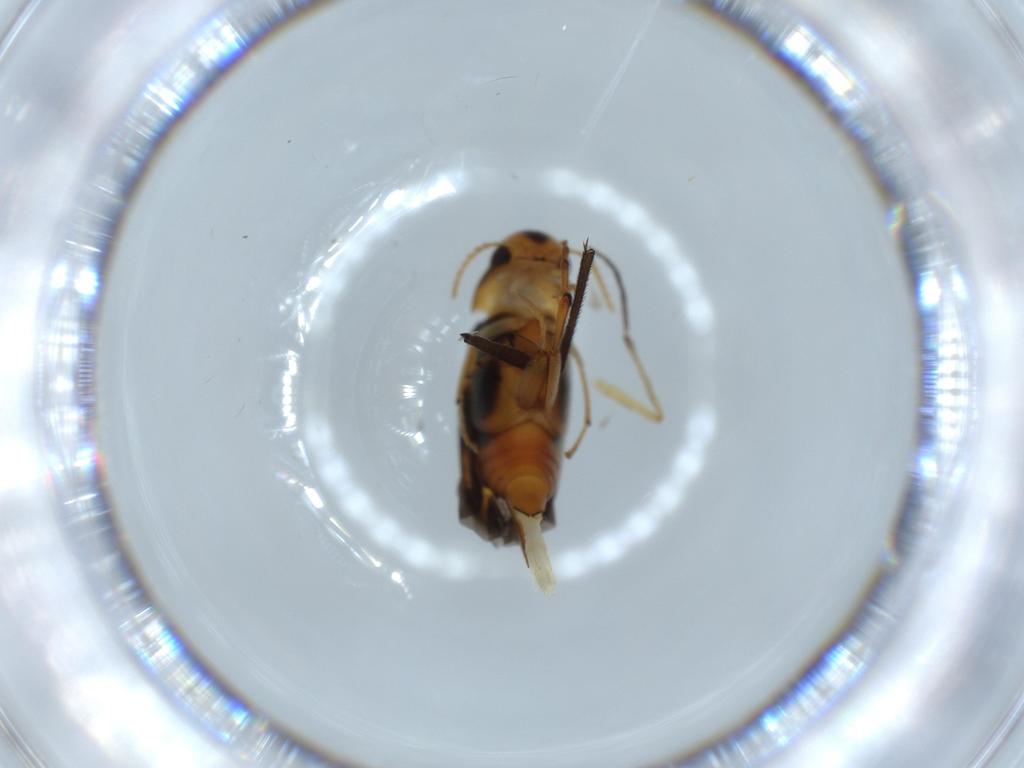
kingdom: Animalia
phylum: Arthropoda
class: Insecta
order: Coleoptera
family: Mordellidae
